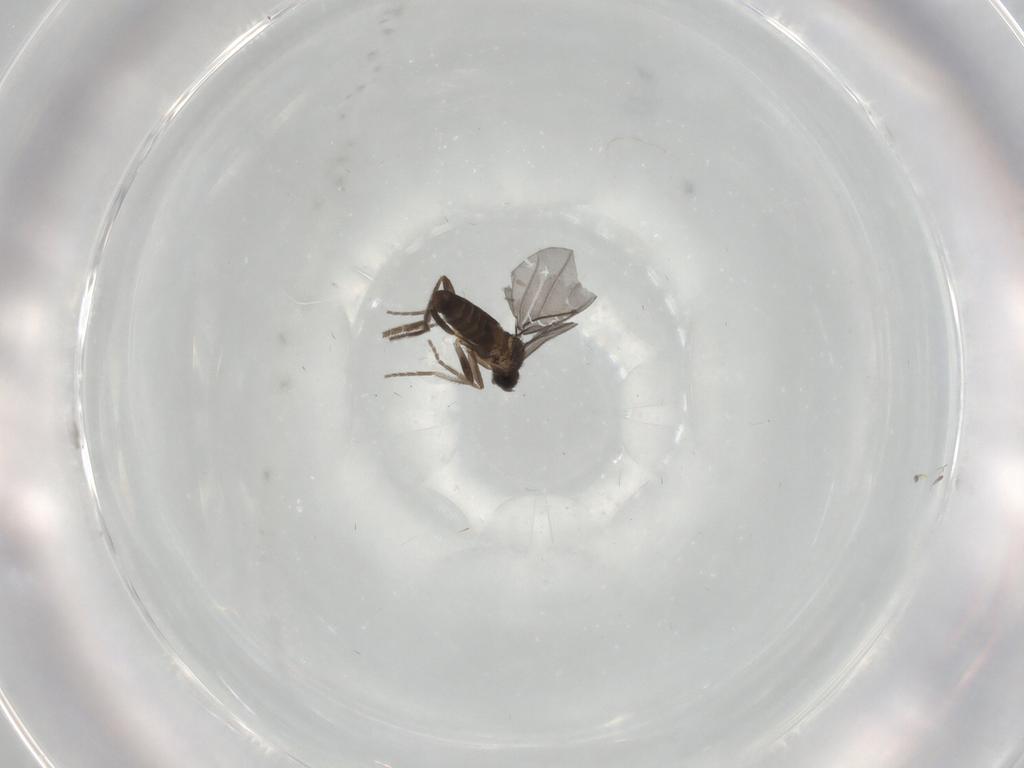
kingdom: Animalia
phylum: Arthropoda
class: Insecta
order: Diptera
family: Phoridae
